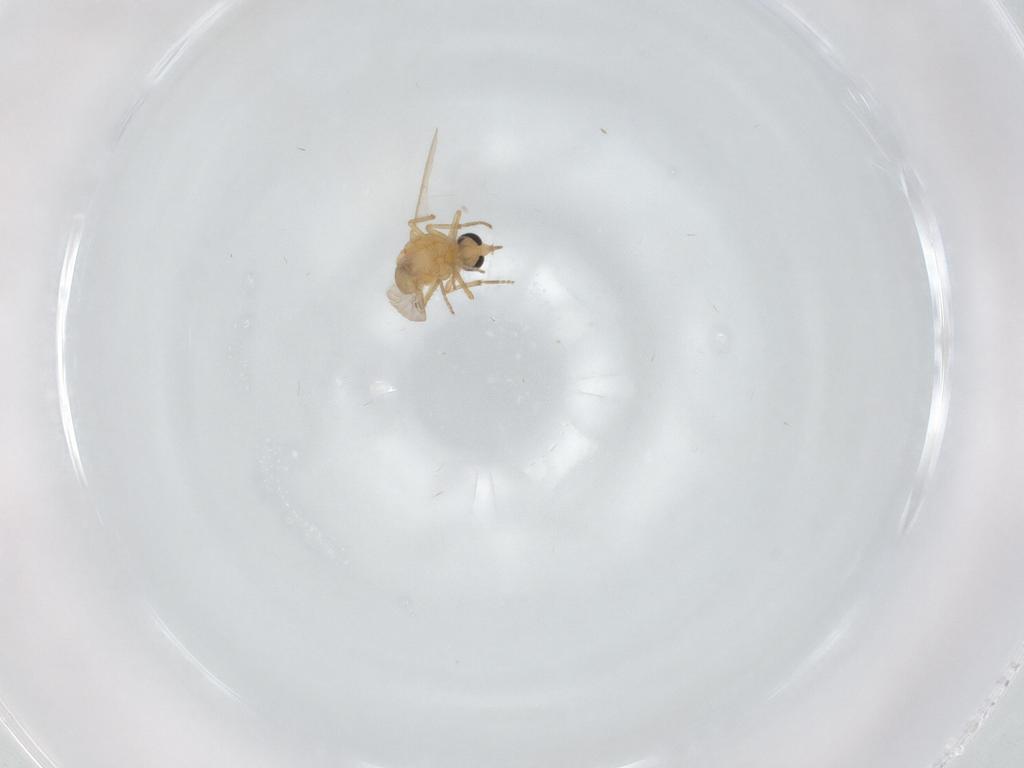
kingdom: Animalia
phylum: Arthropoda
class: Insecta
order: Diptera
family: Ceratopogonidae
